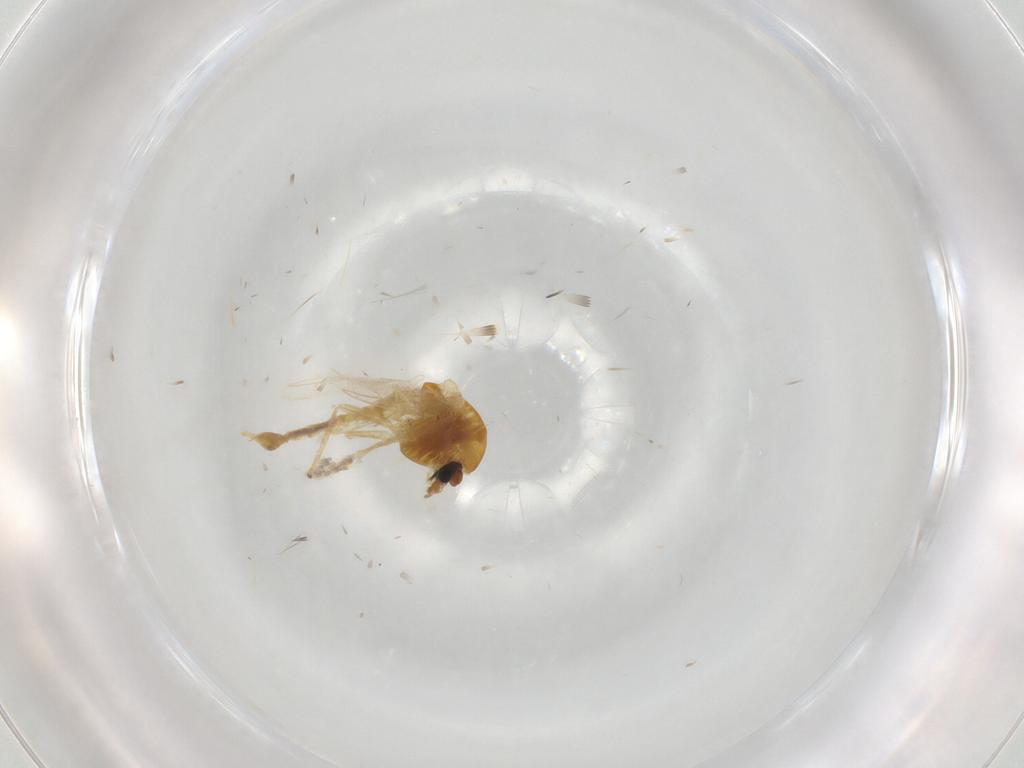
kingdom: Animalia
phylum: Arthropoda
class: Insecta
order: Diptera
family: Chironomidae
